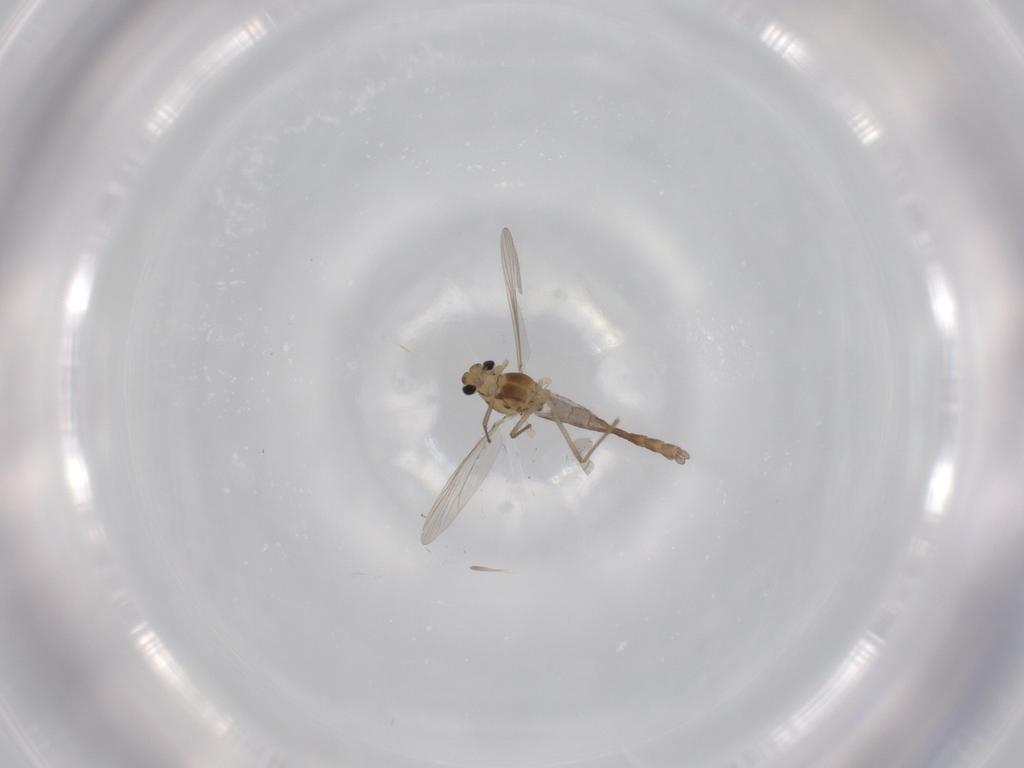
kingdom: Animalia
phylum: Arthropoda
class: Insecta
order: Diptera
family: Chironomidae
